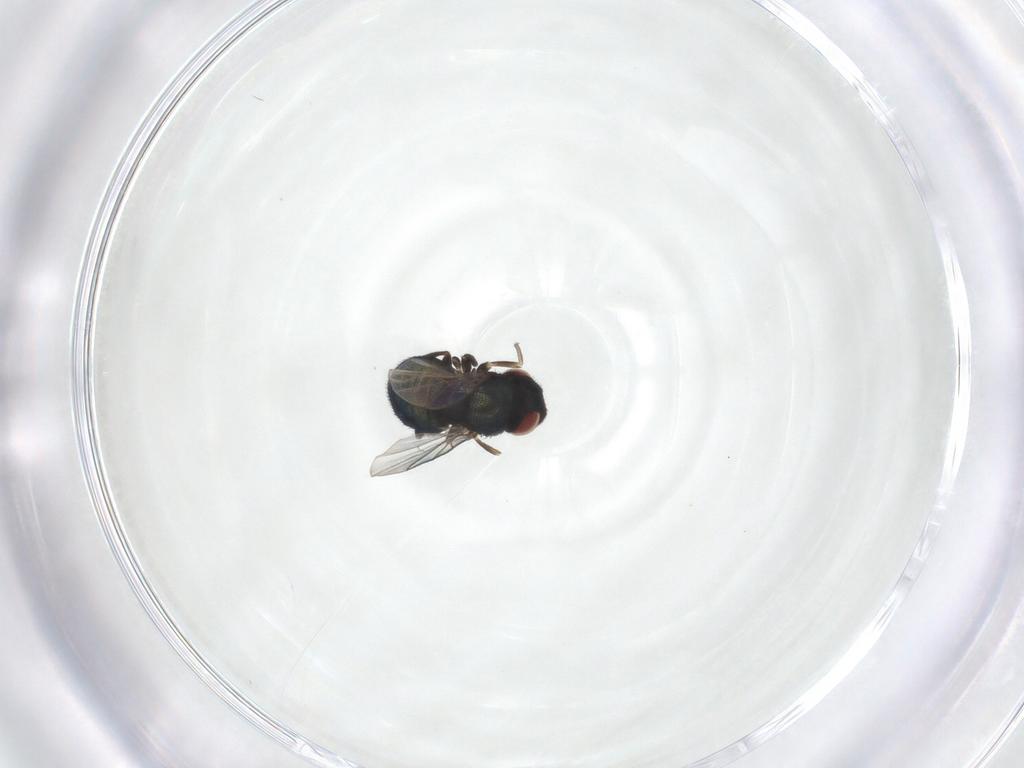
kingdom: Animalia
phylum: Arthropoda
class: Insecta
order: Diptera
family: Cryptochetidae
